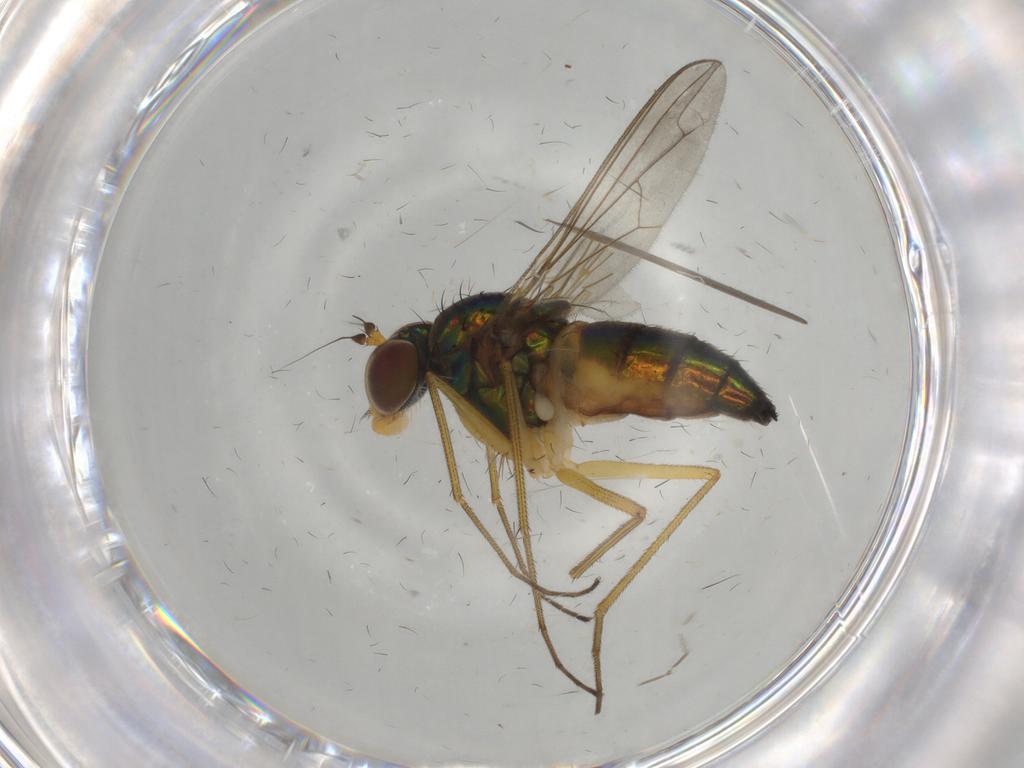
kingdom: Animalia
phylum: Arthropoda
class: Insecta
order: Diptera
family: Dolichopodidae
